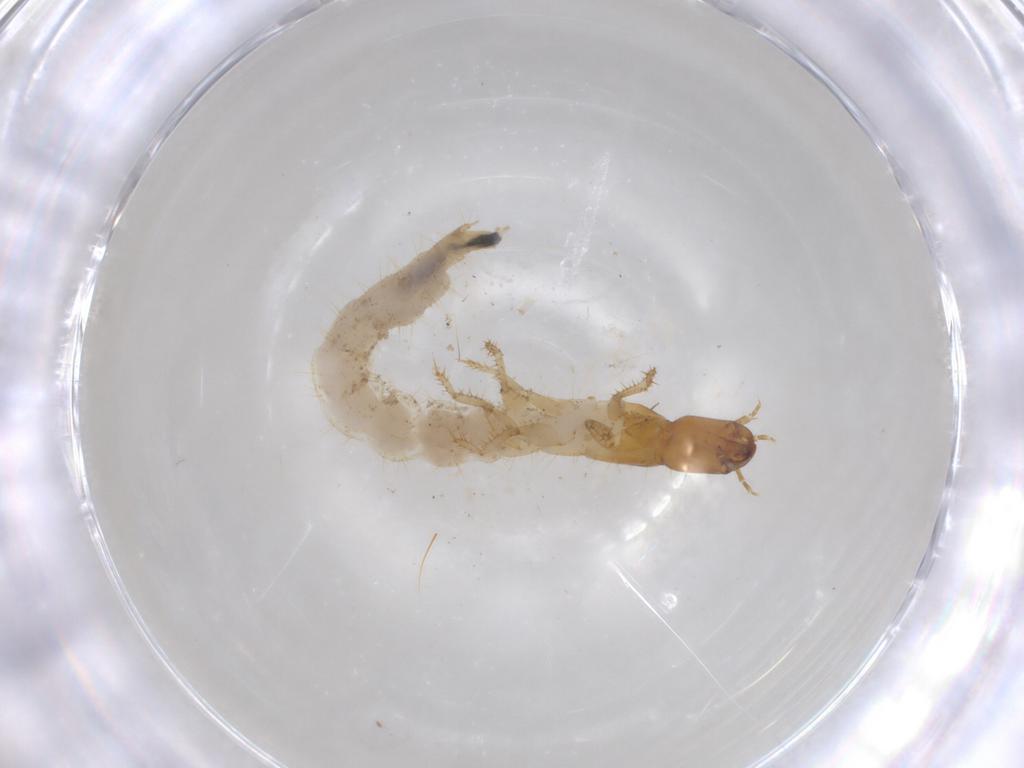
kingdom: Animalia
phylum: Arthropoda
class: Insecta
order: Coleoptera
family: Staphylinidae
